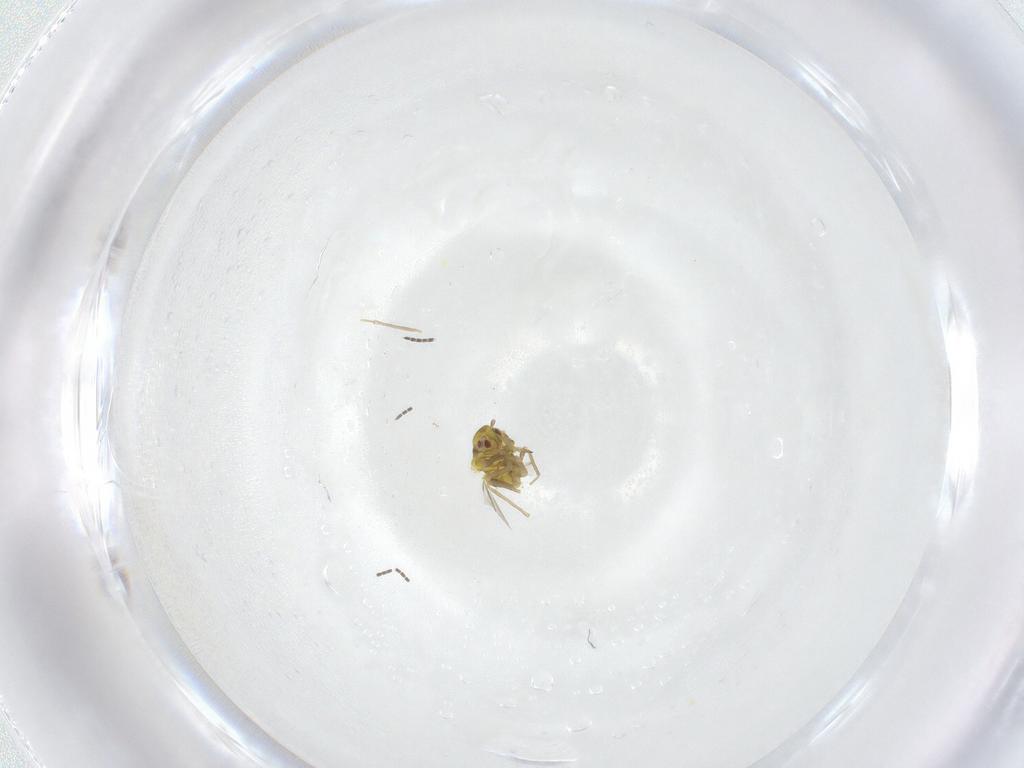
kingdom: Animalia
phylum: Arthropoda
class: Insecta
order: Hemiptera
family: Aleyrodidae
